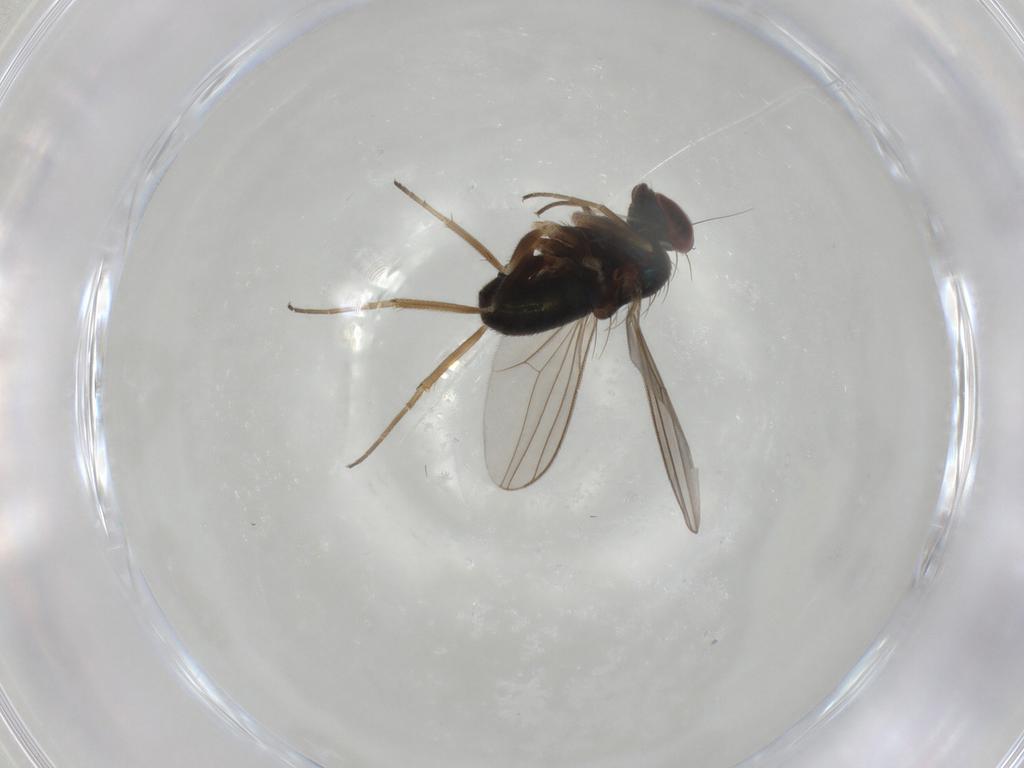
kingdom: Animalia
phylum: Arthropoda
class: Insecta
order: Diptera
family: Dolichopodidae
